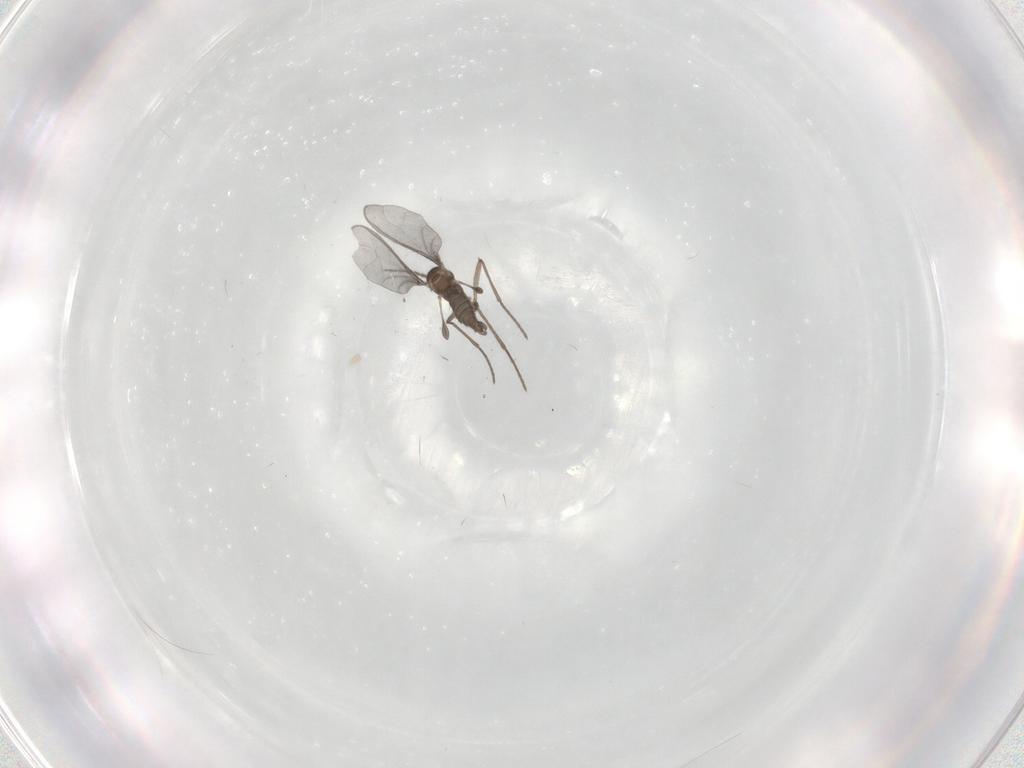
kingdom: Animalia
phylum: Arthropoda
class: Insecta
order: Diptera
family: Sciaridae
